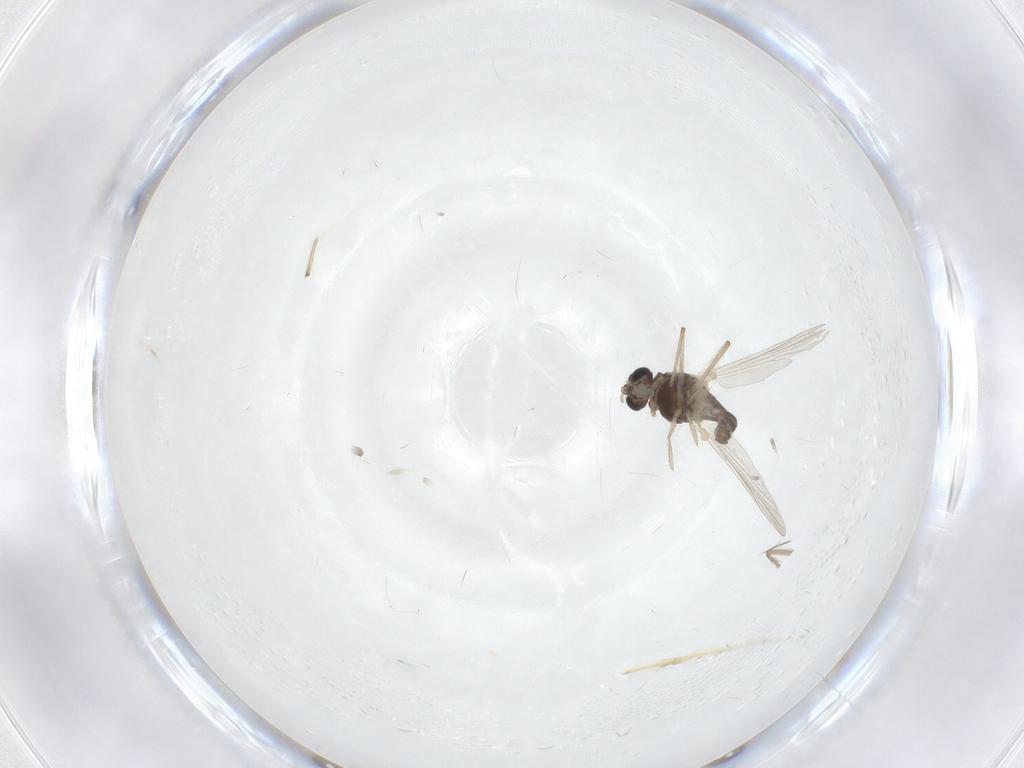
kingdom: Animalia
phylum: Arthropoda
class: Insecta
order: Diptera
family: Chironomidae
